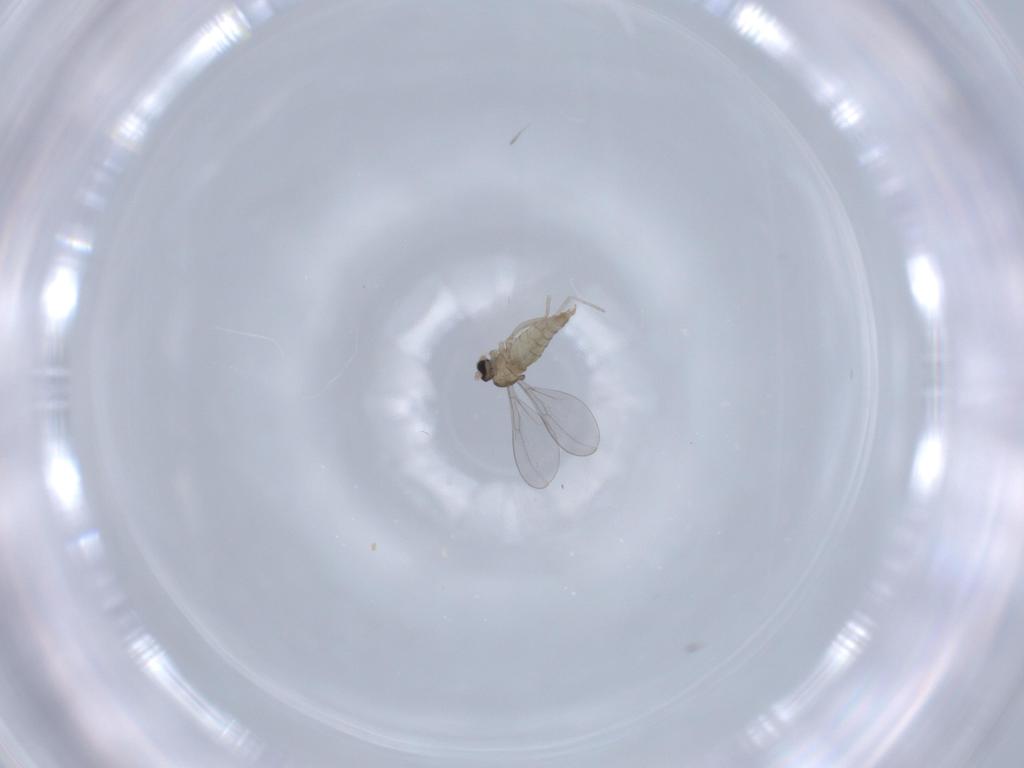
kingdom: Animalia
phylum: Arthropoda
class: Insecta
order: Diptera
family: Cecidomyiidae
